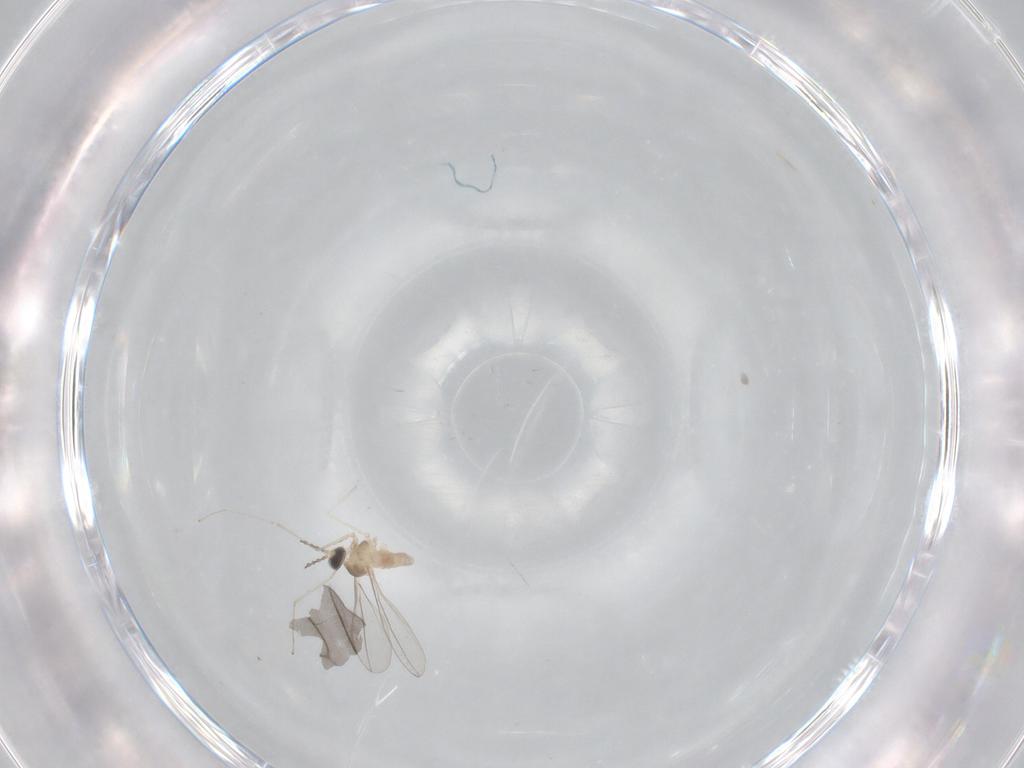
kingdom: Animalia
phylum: Arthropoda
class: Insecta
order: Diptera
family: Cecidomyiidae
